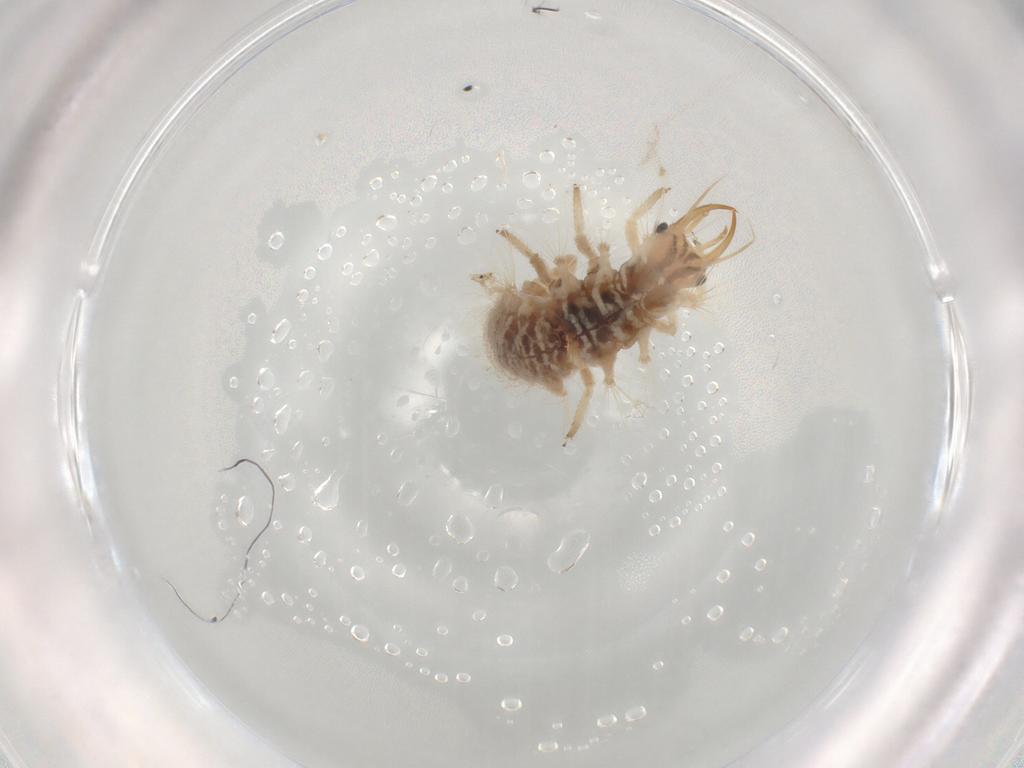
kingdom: Animalia
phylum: Arthropoda
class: Insecta
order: Neuroptera
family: Chrysopidae
